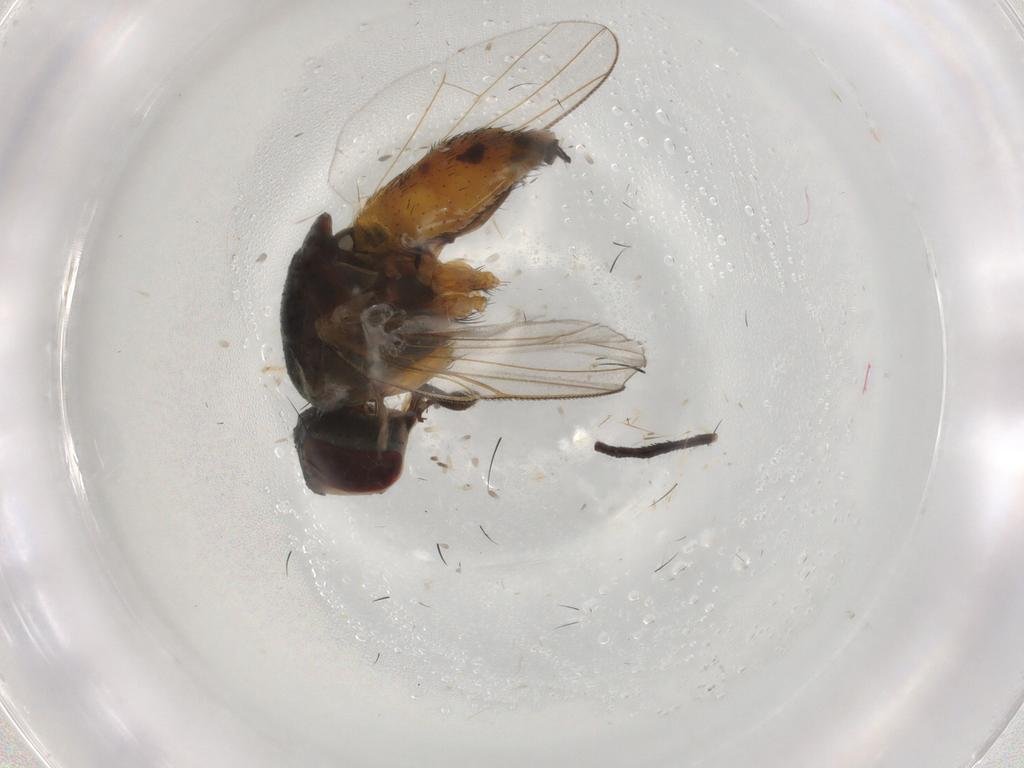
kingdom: Animalia
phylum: Arthropoda
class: Insecta
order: Diptera
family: Muscidae
